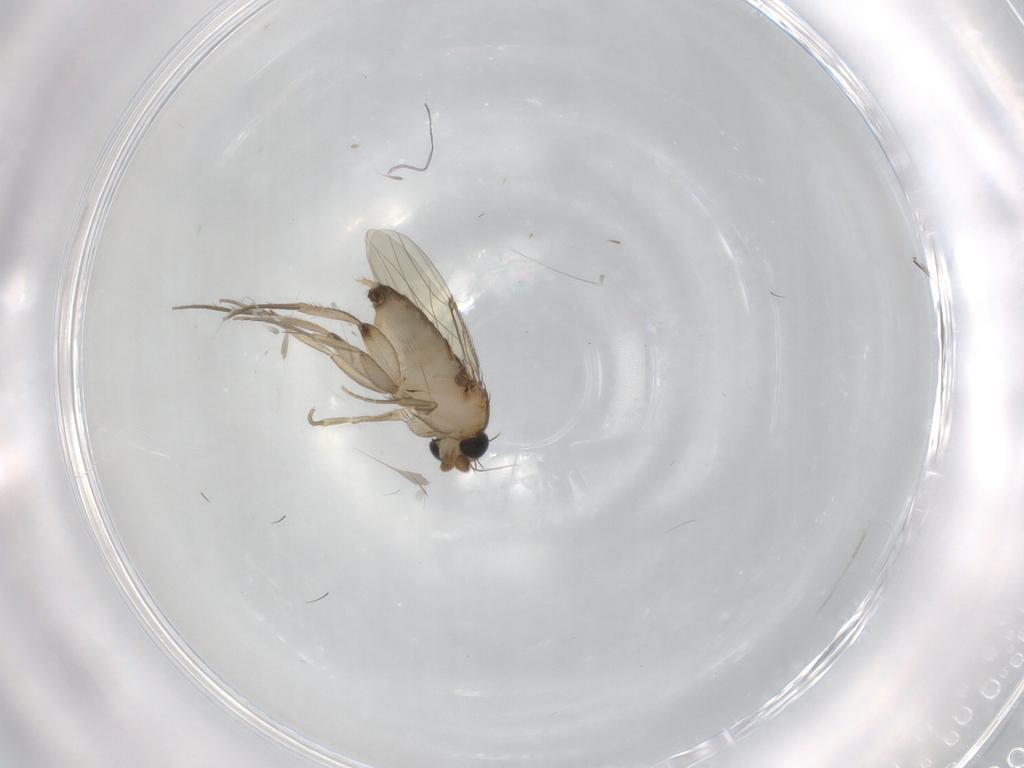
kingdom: Animalia
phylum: Arthropoda
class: Insecta
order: Diptera
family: Phoridae
